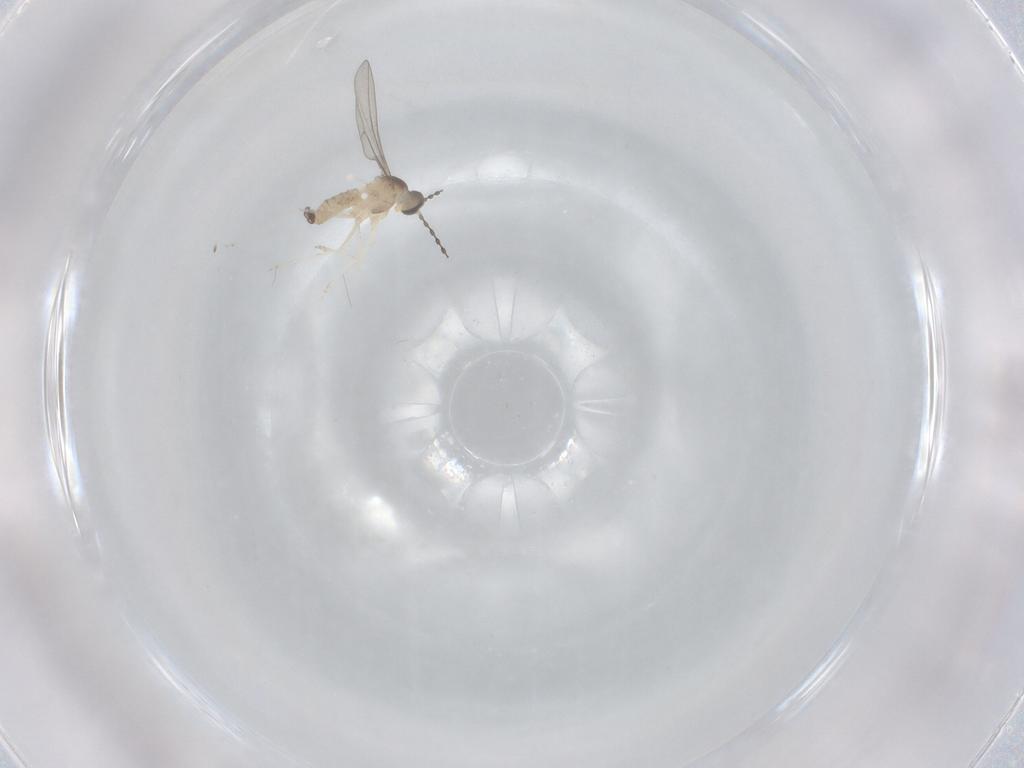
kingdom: Animalia
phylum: Arthropoda
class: Insecta
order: Diptera
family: Cecidomyiidae
